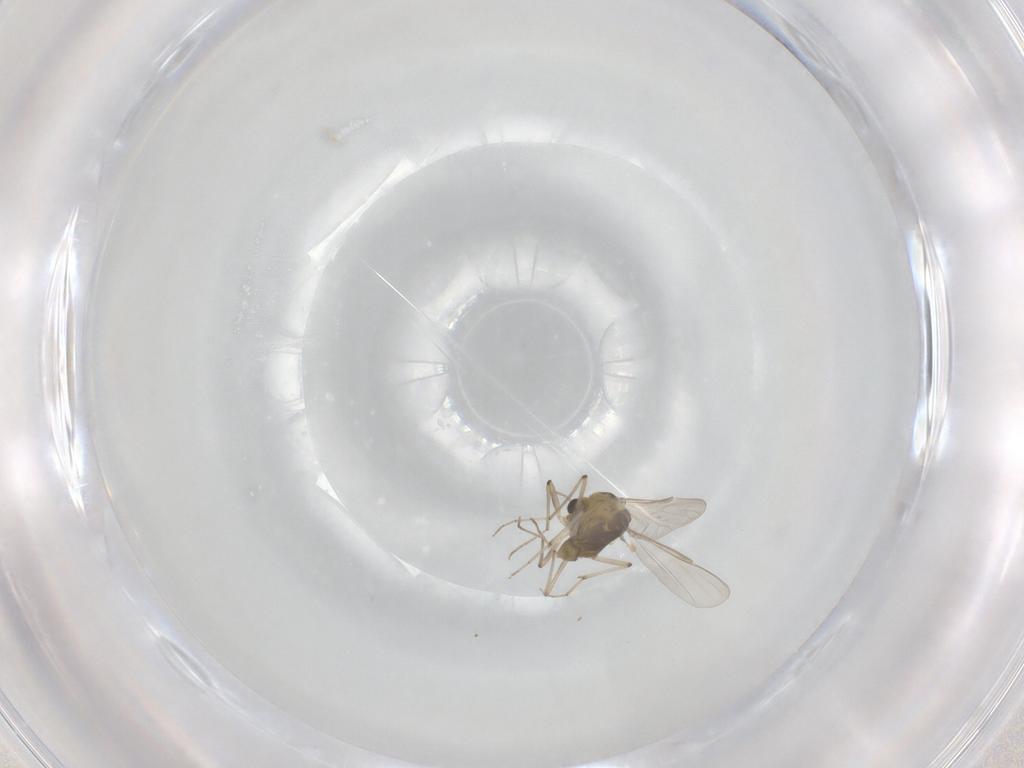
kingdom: Animalia
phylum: Arthropoda
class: Insecta
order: Diptera
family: Chironomidae
